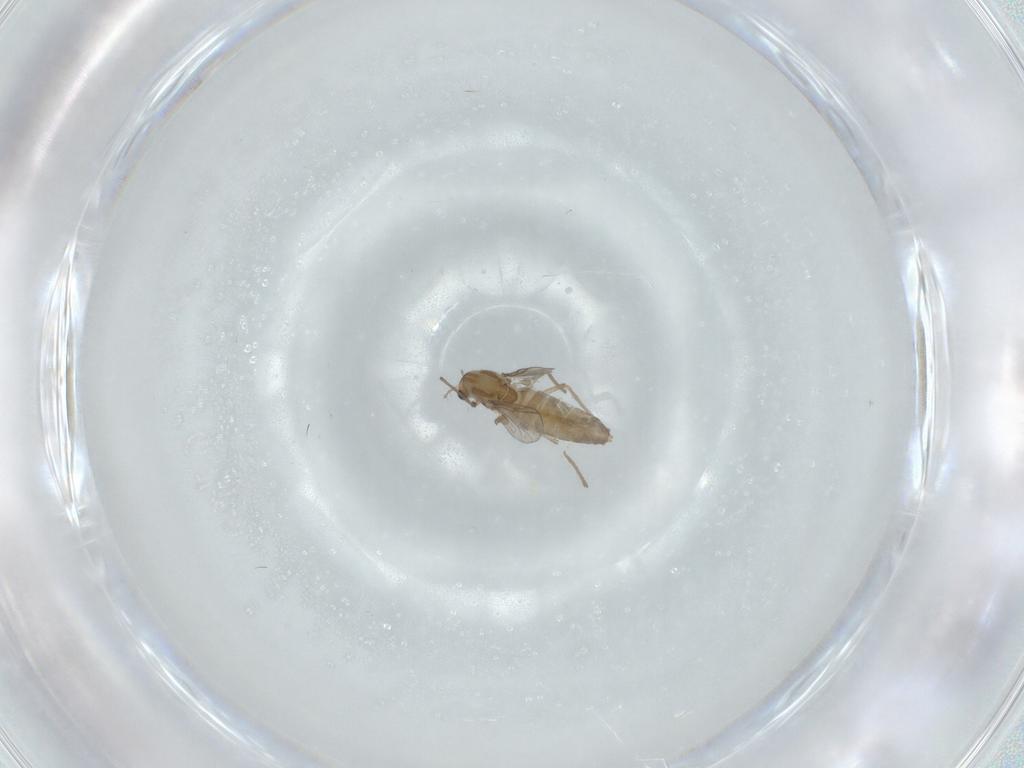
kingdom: Animalia
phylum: Arthropoda
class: Insecta
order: Diptera
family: Chironomidae
